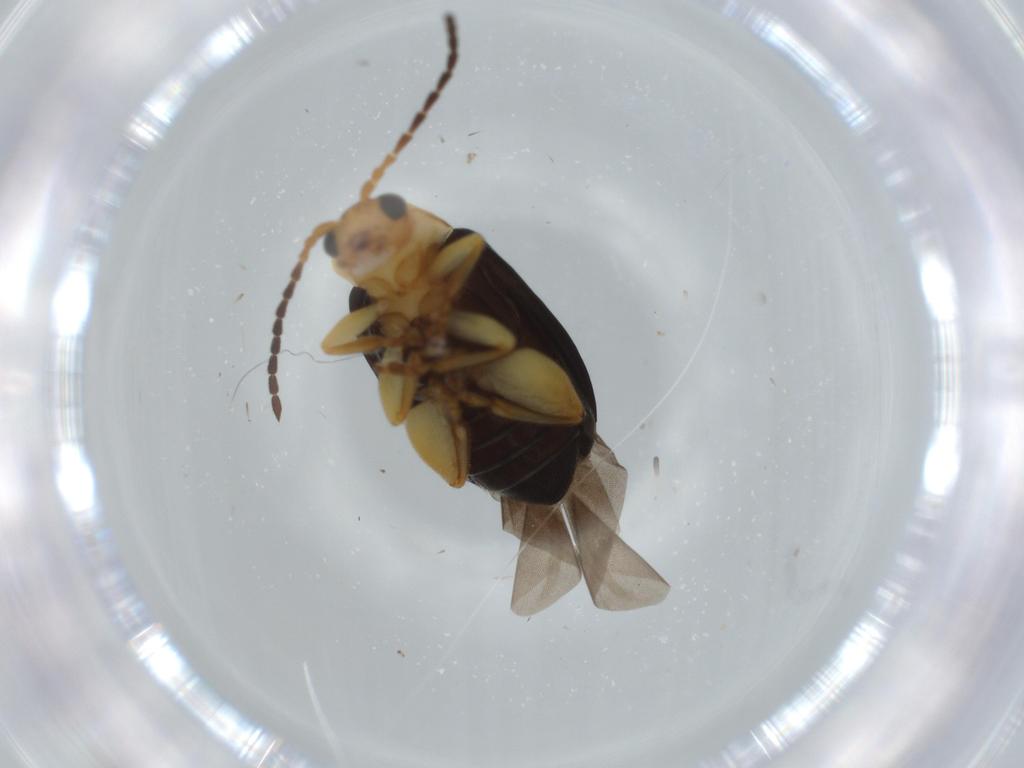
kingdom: Animalia
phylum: Arthropoda
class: Insecta
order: Coleoptera
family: Chrysomelidae
